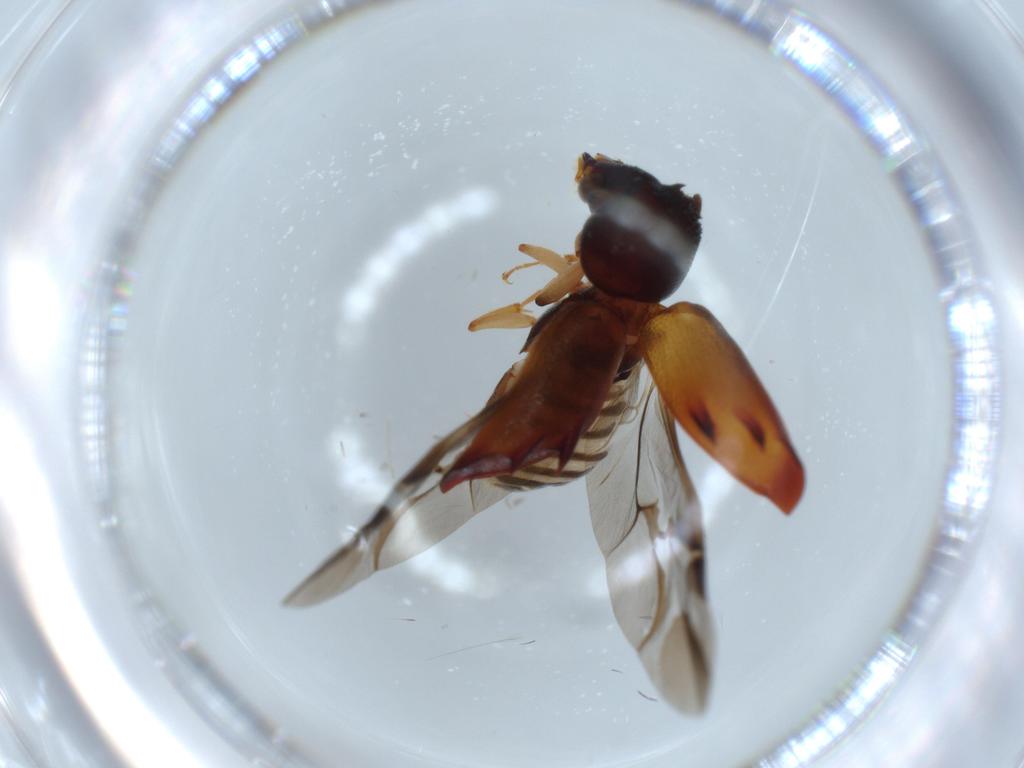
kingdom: Animalia
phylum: Arthropoda
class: Insecta
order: Coleoptera
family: Bostrichidae
